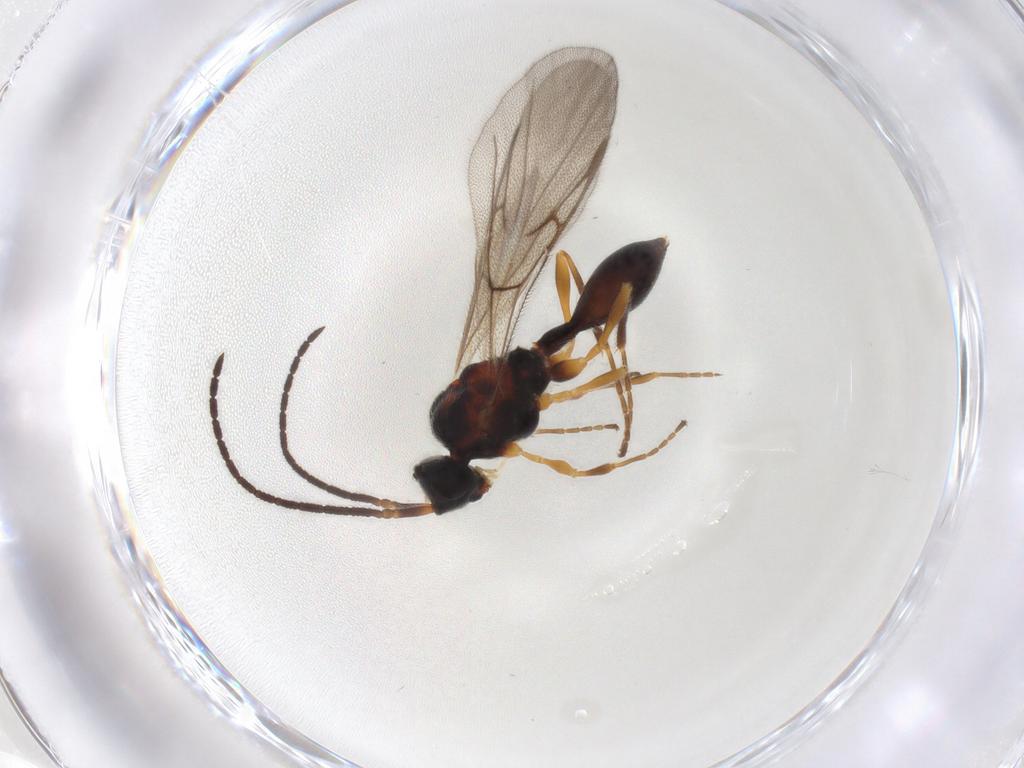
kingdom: Animalia
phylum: Arthropoda
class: Insecta
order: Hymenoptera
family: Diapriidae
